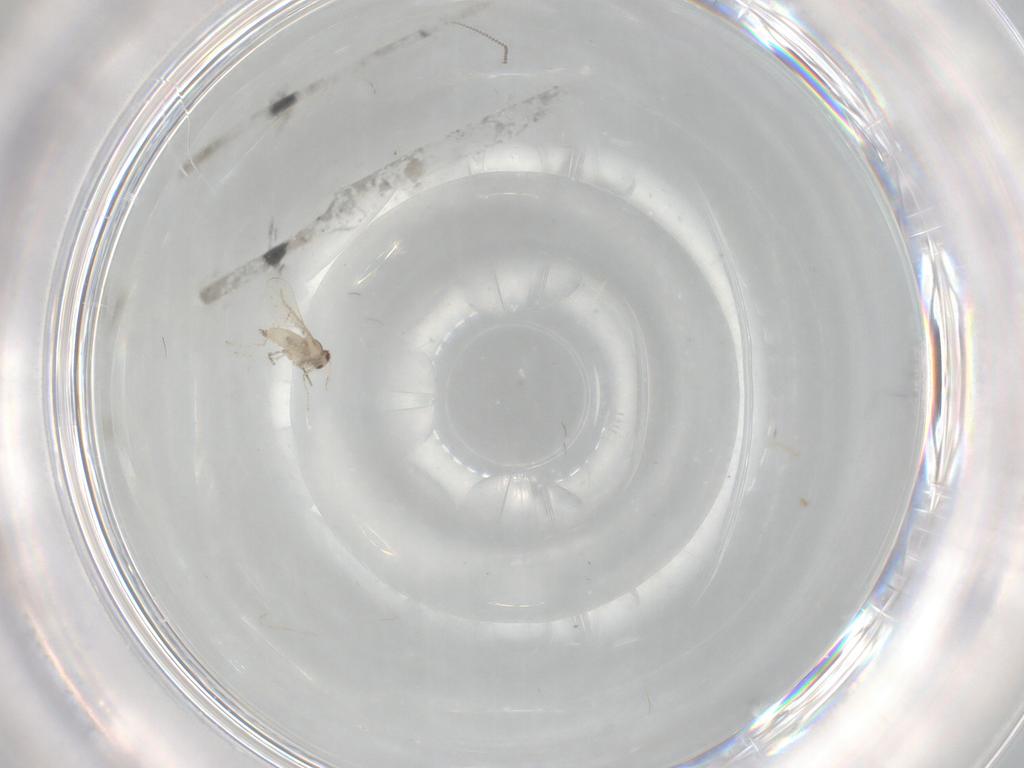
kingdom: Animalia
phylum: Arthropoda
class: Insecta
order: Diptera
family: Cecidomyiidae
